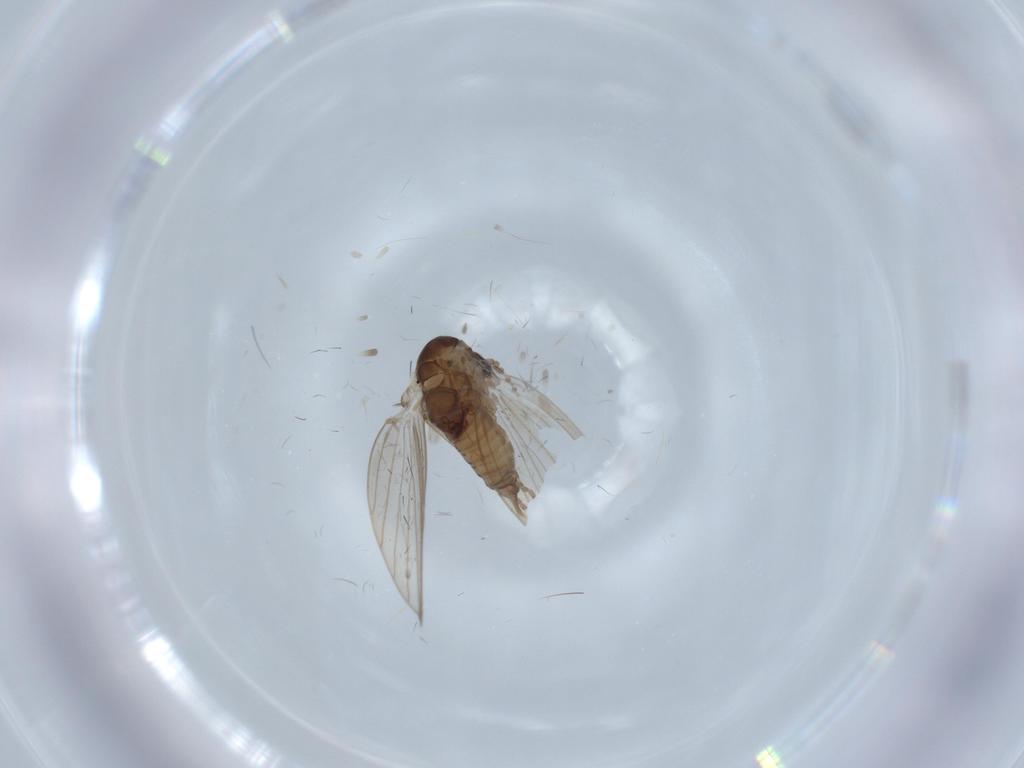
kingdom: Animalia
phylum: Arthropoda
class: Insecta
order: Diptera
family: Psychodidae
